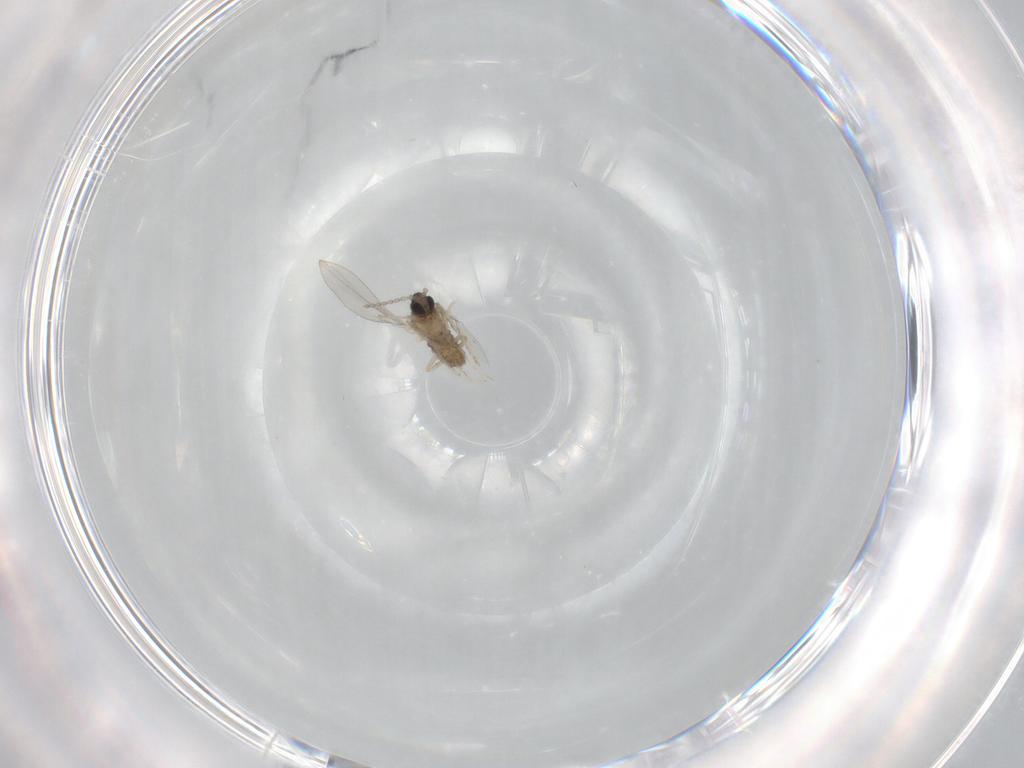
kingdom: Animalia
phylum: Arthropoda
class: Insecta
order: Diptera
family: Cecidomyiidae
